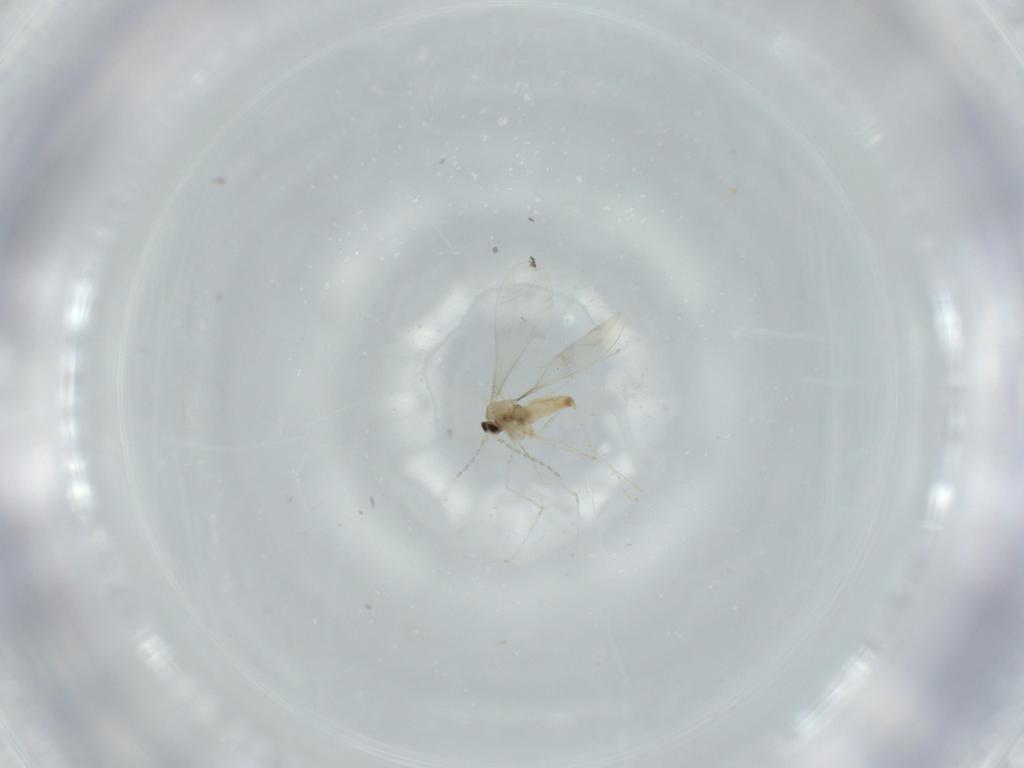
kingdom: Animalia
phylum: Arthropoda
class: Insecta
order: Diptera
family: Cecidomyiidae
